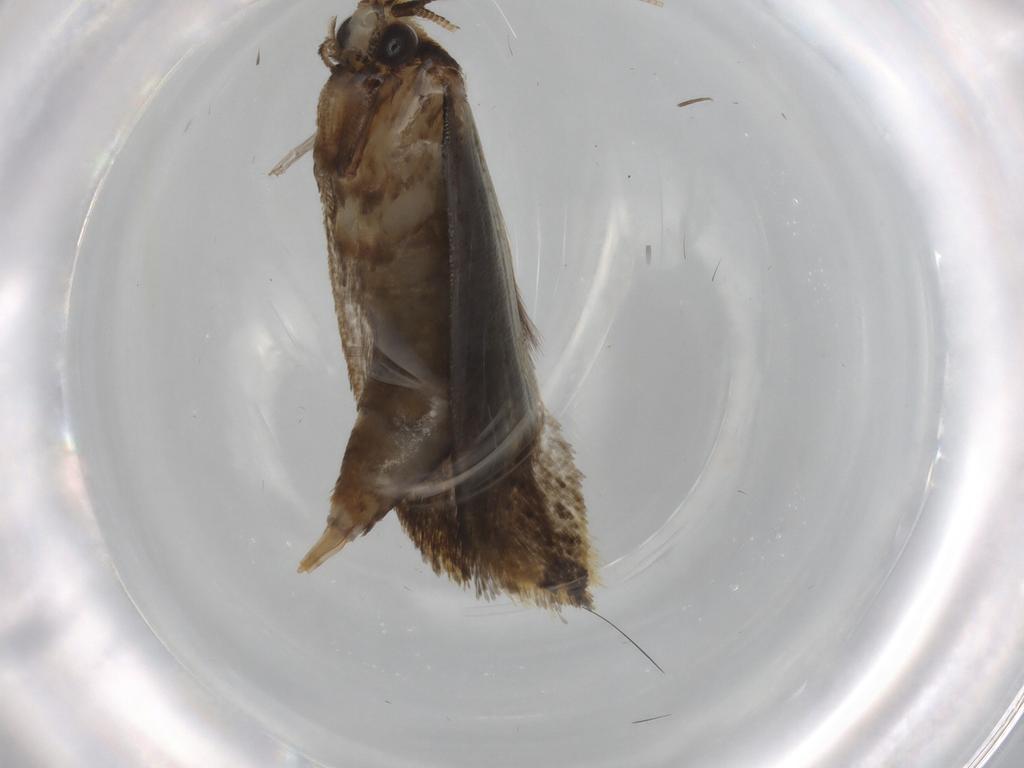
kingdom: Animalia
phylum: Arthropoda
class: Insecta
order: Lepidoptera
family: Tineidae
